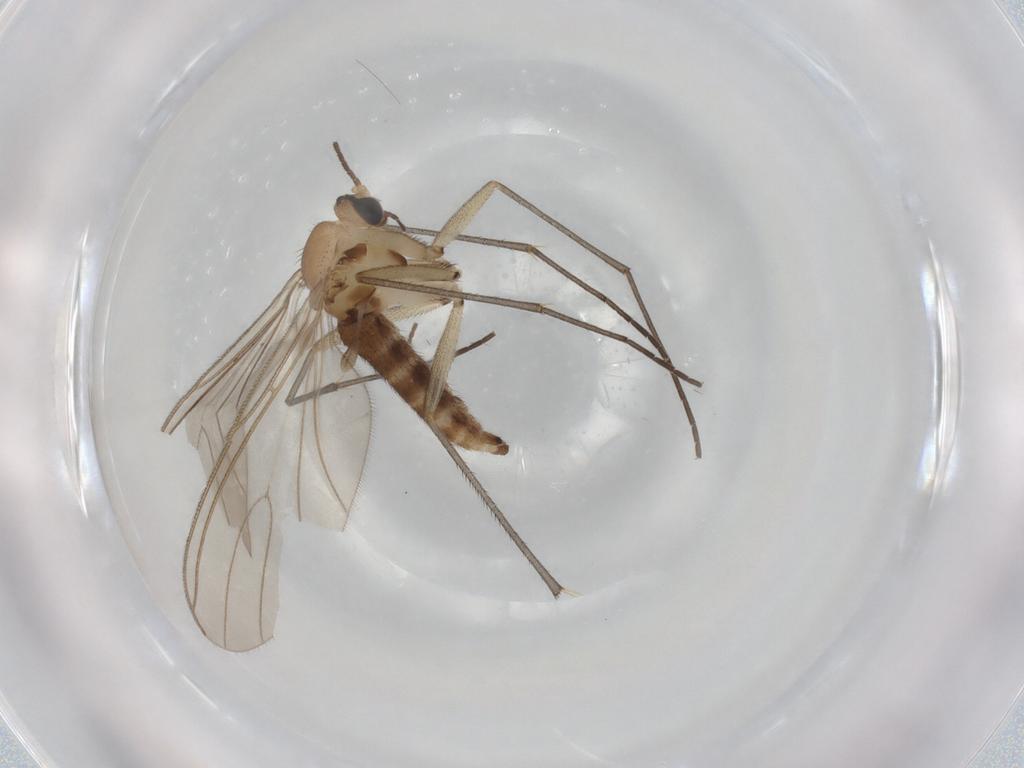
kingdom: Animalia
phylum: Arthropoda
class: Insecta
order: Diptera
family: Sciaridae
